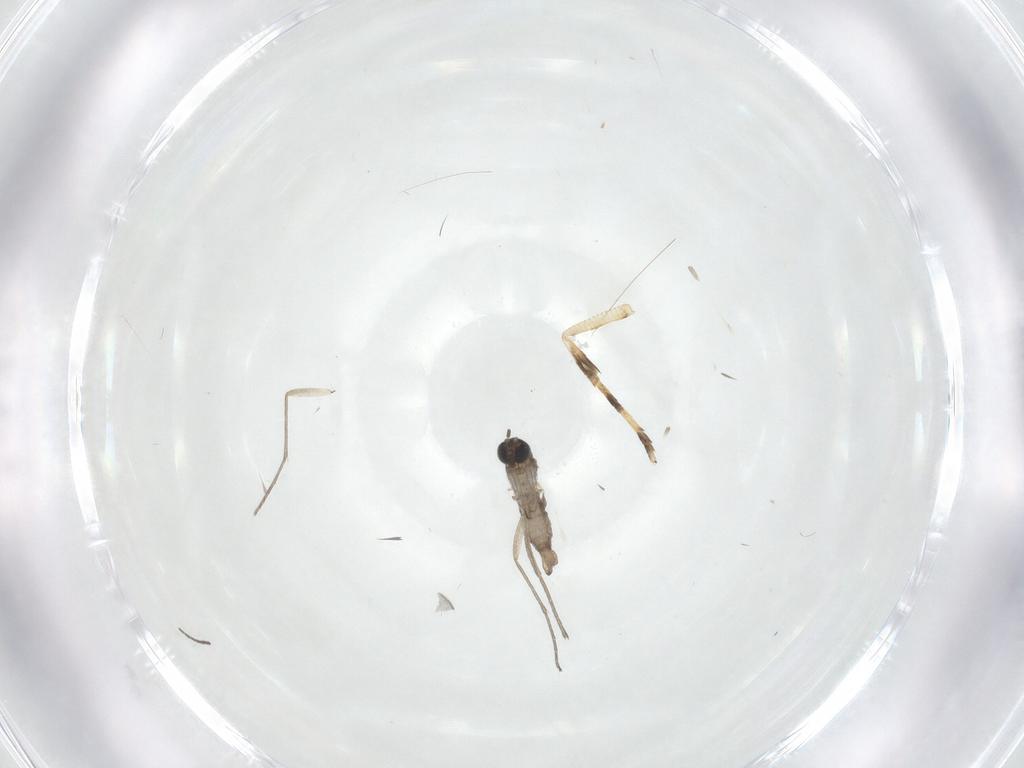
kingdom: Animalia
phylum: Arthropoda
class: Insecta
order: Diptera
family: Sciaridae
